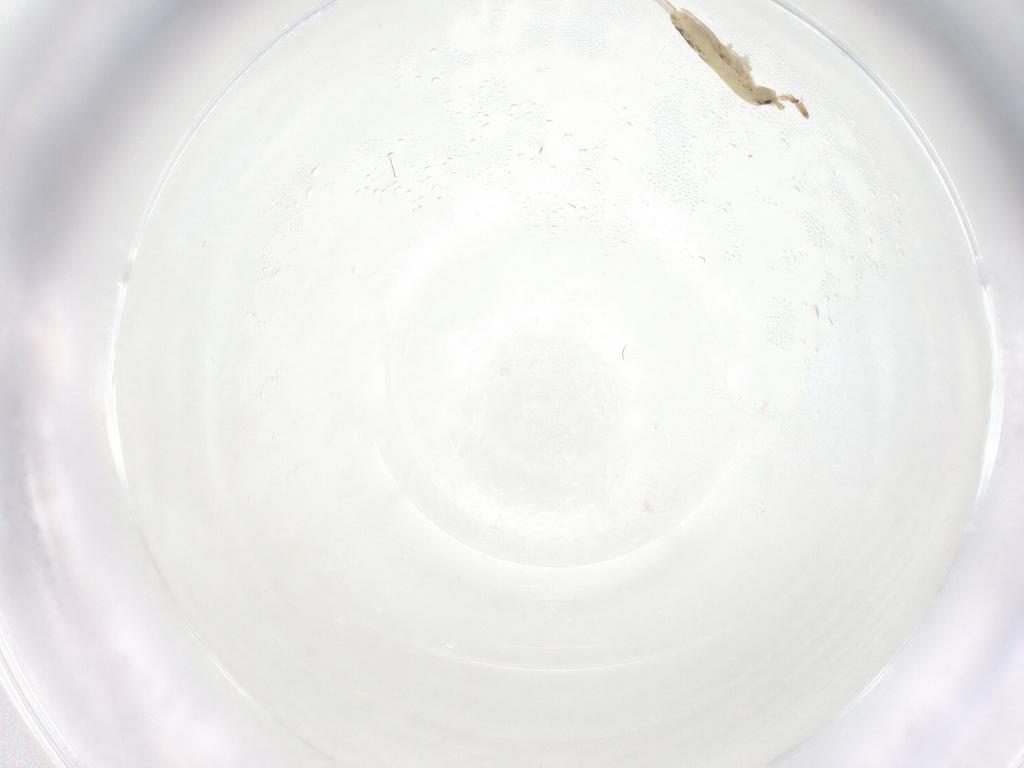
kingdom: Animalia
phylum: Arthropoda
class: Collembola
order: Entomobryomorpha
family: Entomobryidae
